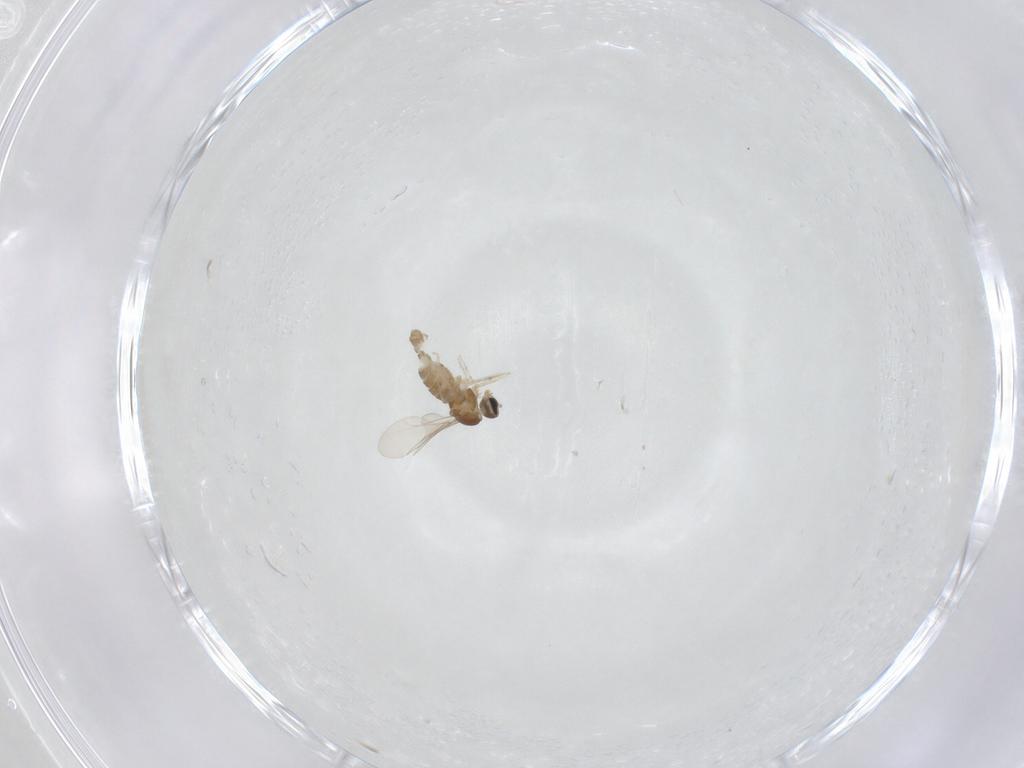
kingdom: Animalia
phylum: Arthropoda
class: Insecta
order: Diptera
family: Cecidomyiidae
